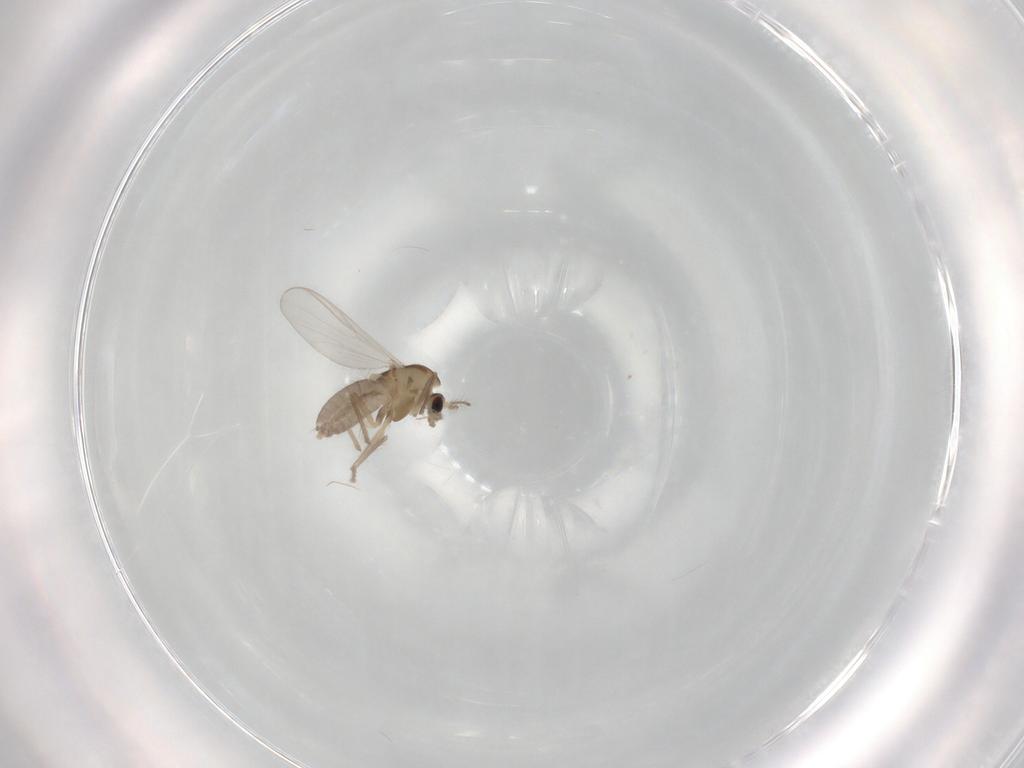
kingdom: Animalia
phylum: Arthropoda
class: Insecta
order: Diptera
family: Chironomidae
